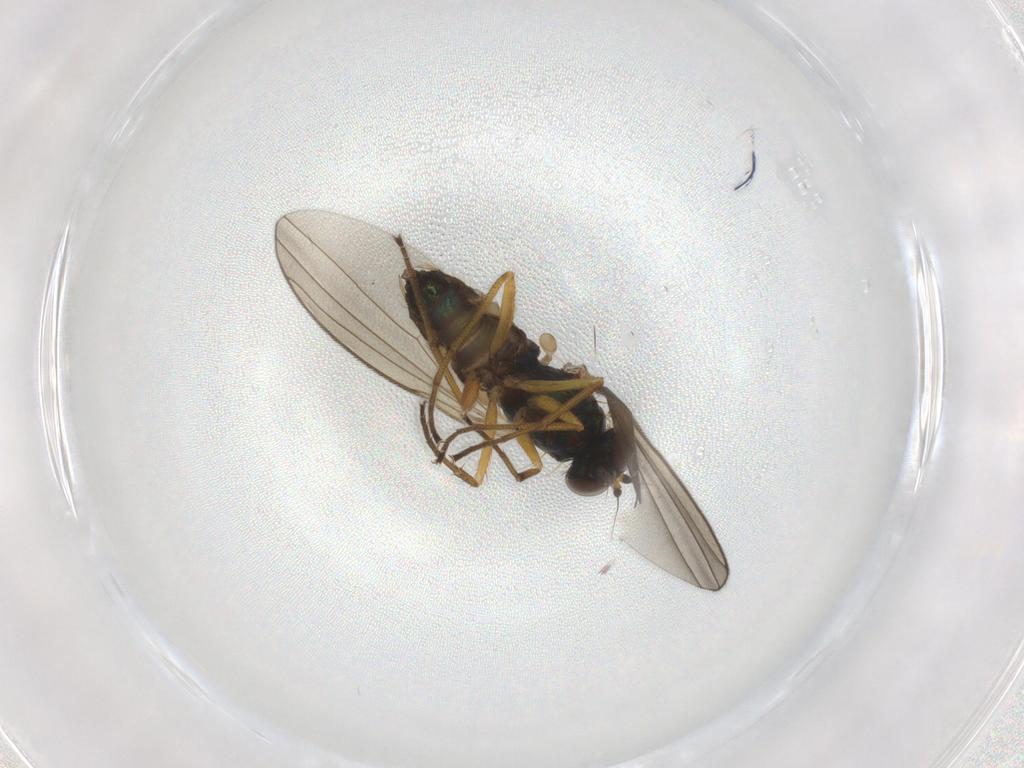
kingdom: Animalia
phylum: Arthropoda
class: Insecta
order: Diptera
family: Dolichopodidae
